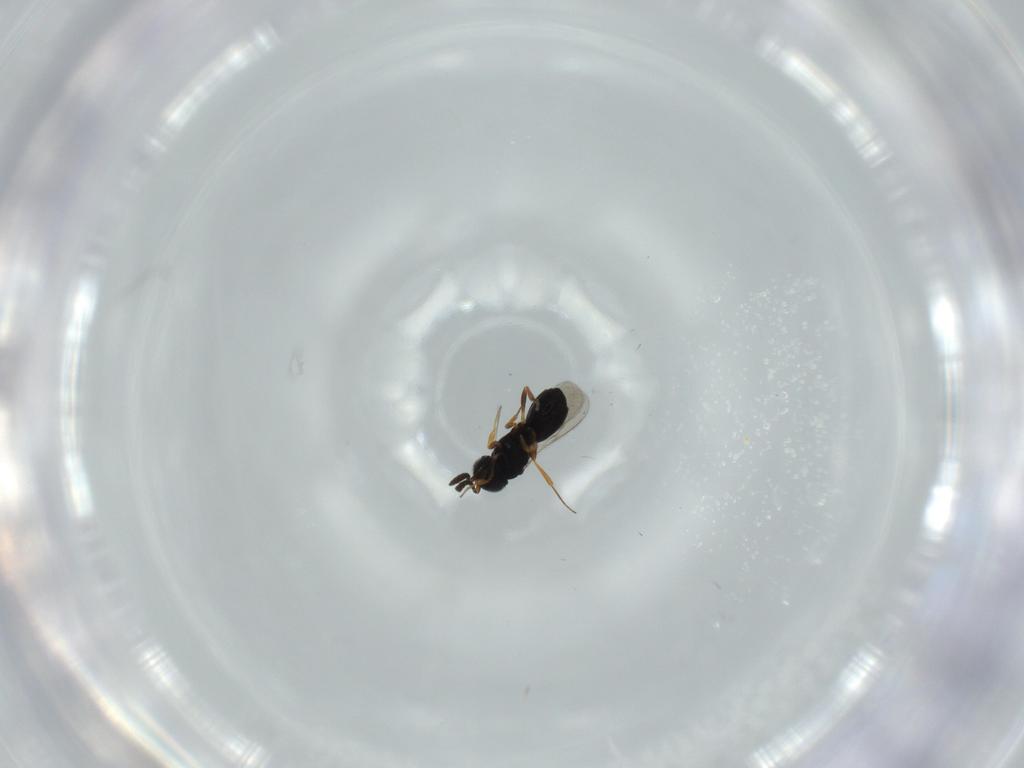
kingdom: Animalia
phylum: Arthropoda
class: Insecta
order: Hymenoptera
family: Scelionidae
